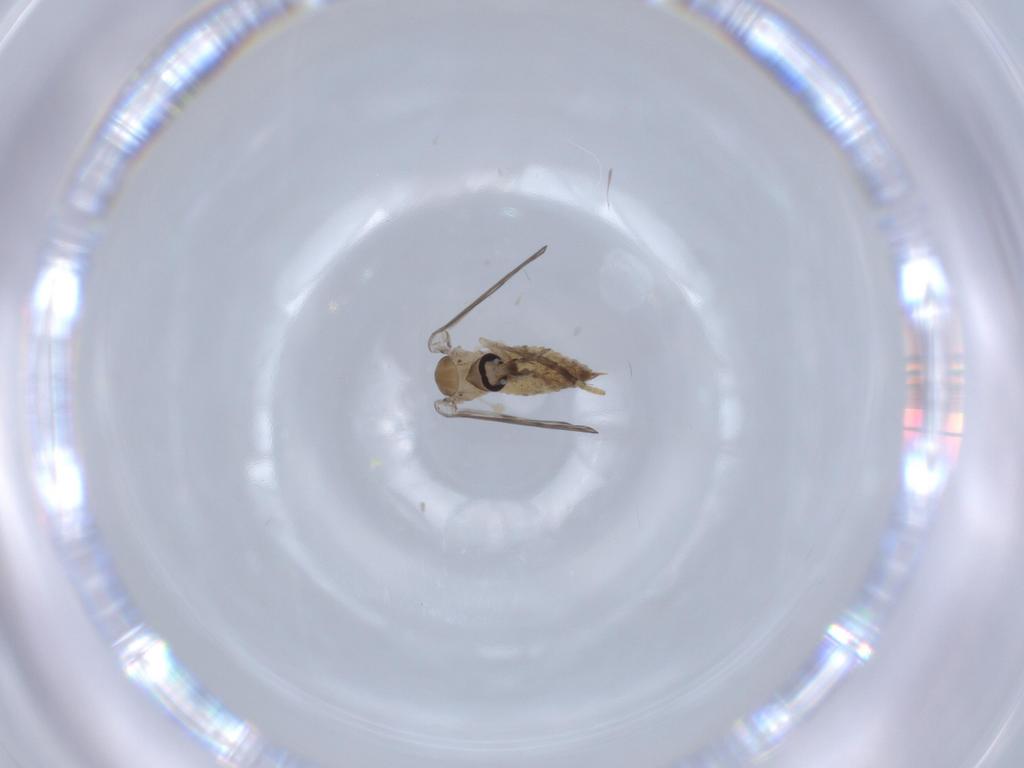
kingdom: Animalia
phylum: Arthropoda
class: Insecta
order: Diptera
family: Psychodidae
